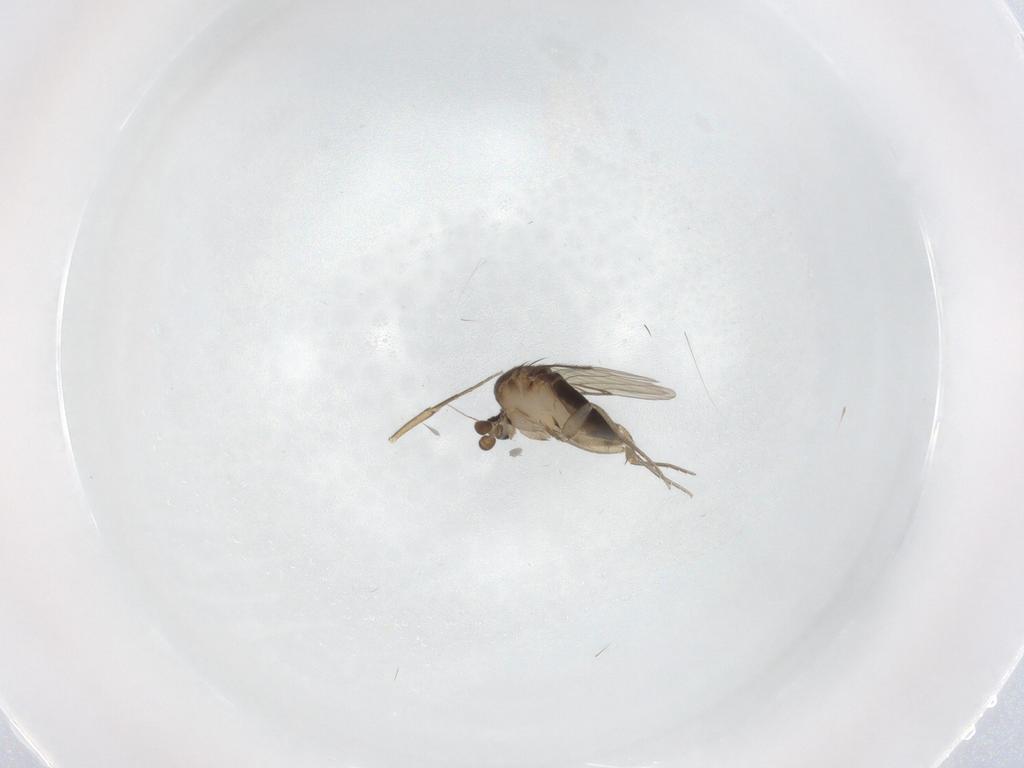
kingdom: Animalia
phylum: Arthropoda
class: Insecta
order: Diptera
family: Phoridae
